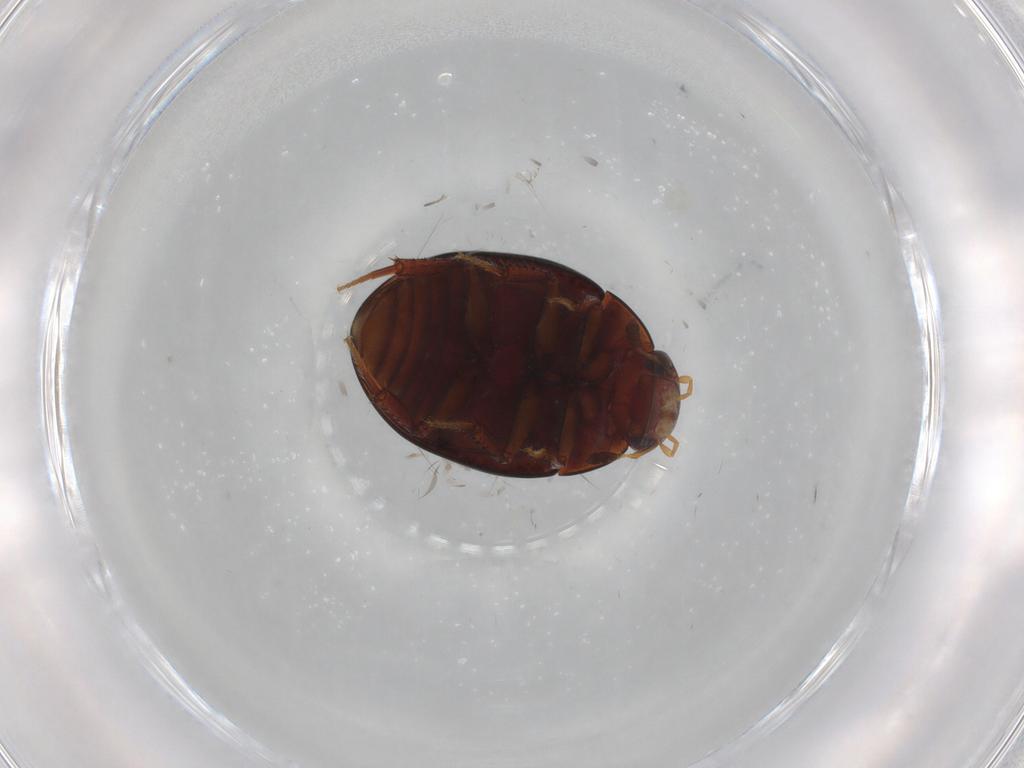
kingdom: Animalia
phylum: Arthropoda
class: Insecta
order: Coleoptera
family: Hydrophilidae
